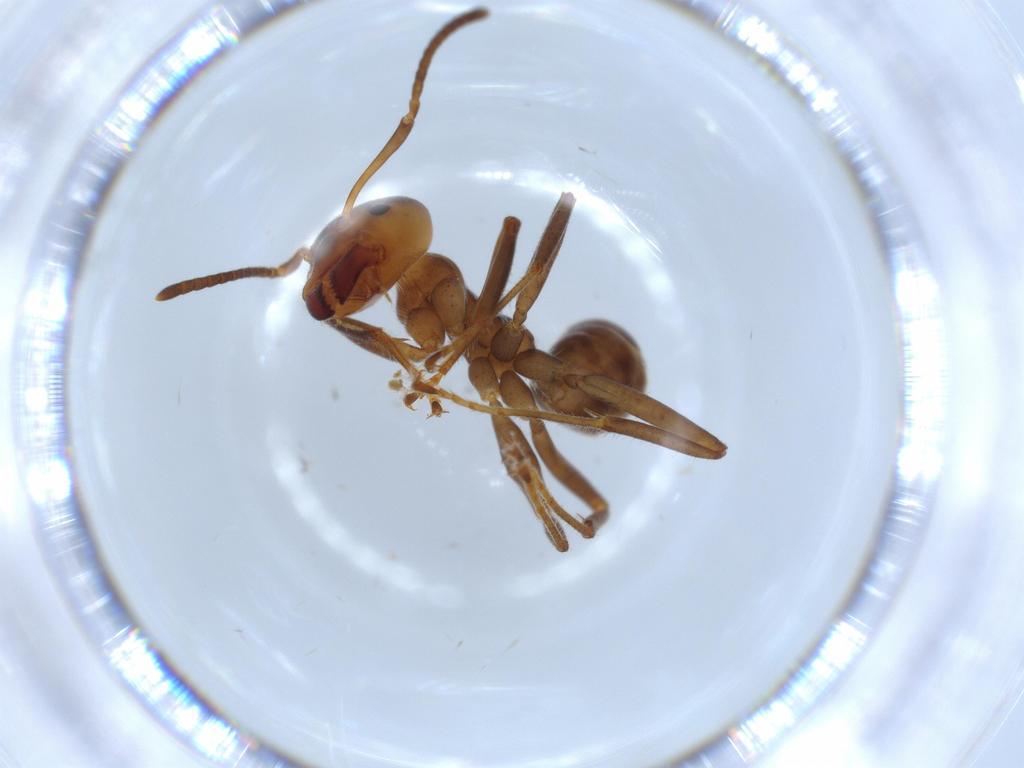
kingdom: Animalia
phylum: Arthropoda
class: Insecta
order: Hymenoptera
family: Formicidae
